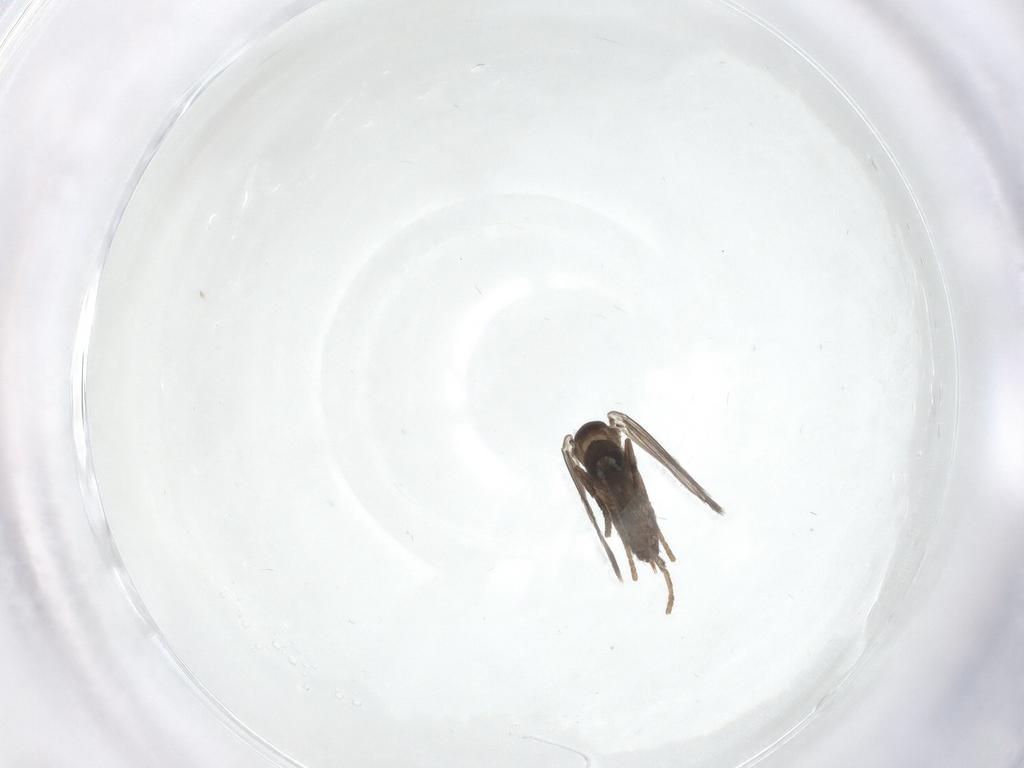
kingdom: Animalia
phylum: Arthropoda
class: Insecta
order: Diptera
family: Psychodidae
